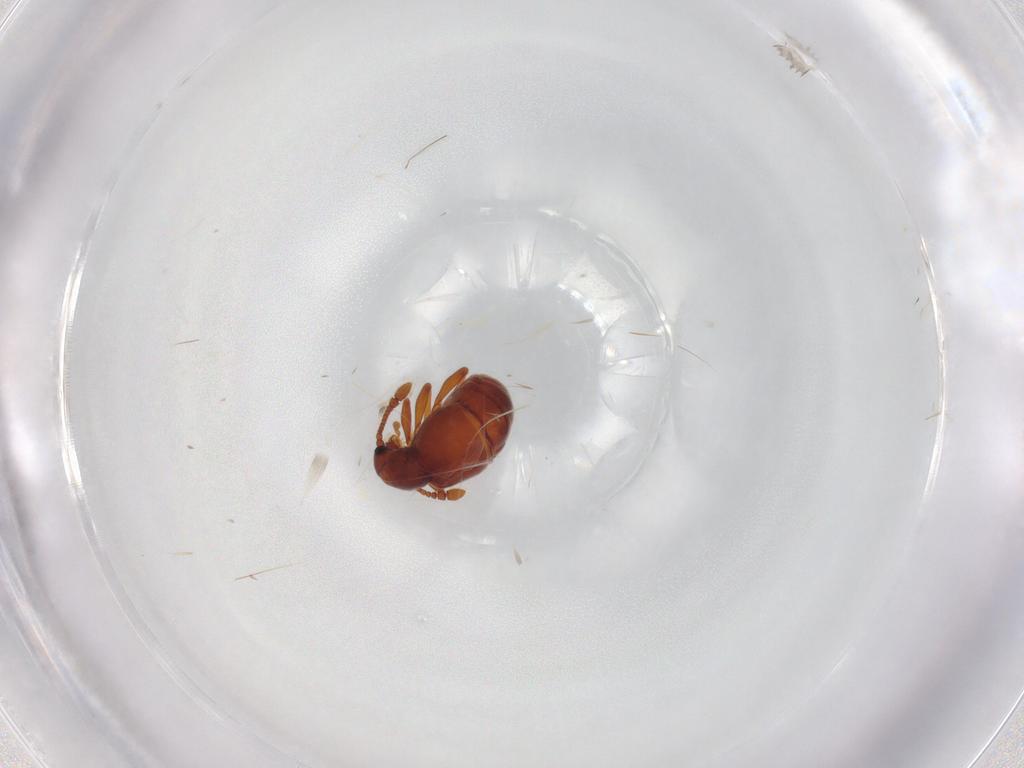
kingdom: Animalia
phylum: Arthropoda
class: Insecta
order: Coleoptera
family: Staphylinidae
